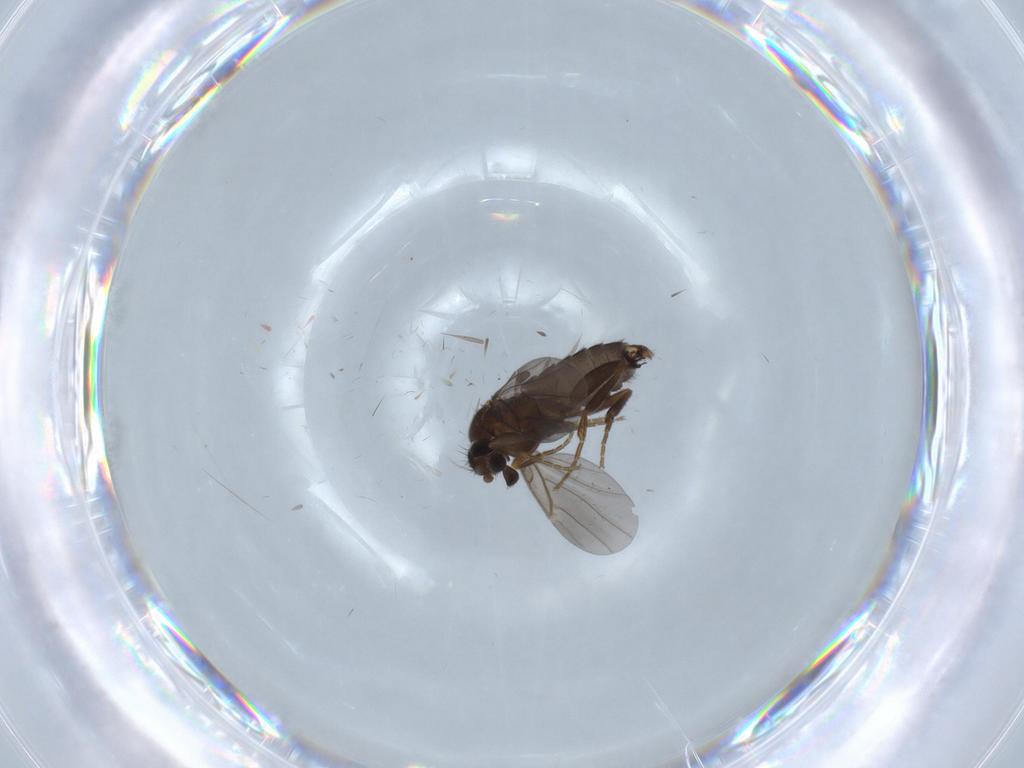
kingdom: Animalia
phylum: Arthropoda
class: Insecta
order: Diptera
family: Phoridae
